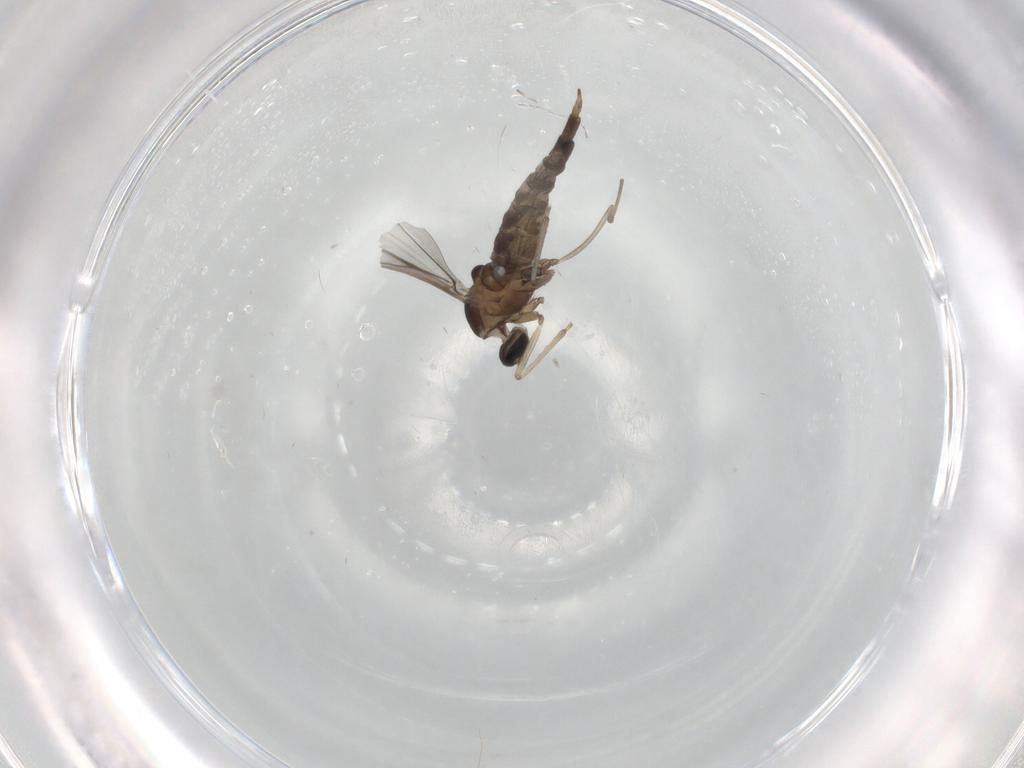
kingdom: Animalia
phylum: Arthropoda
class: Insecta
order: Diptera
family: Cecidomyiidae
